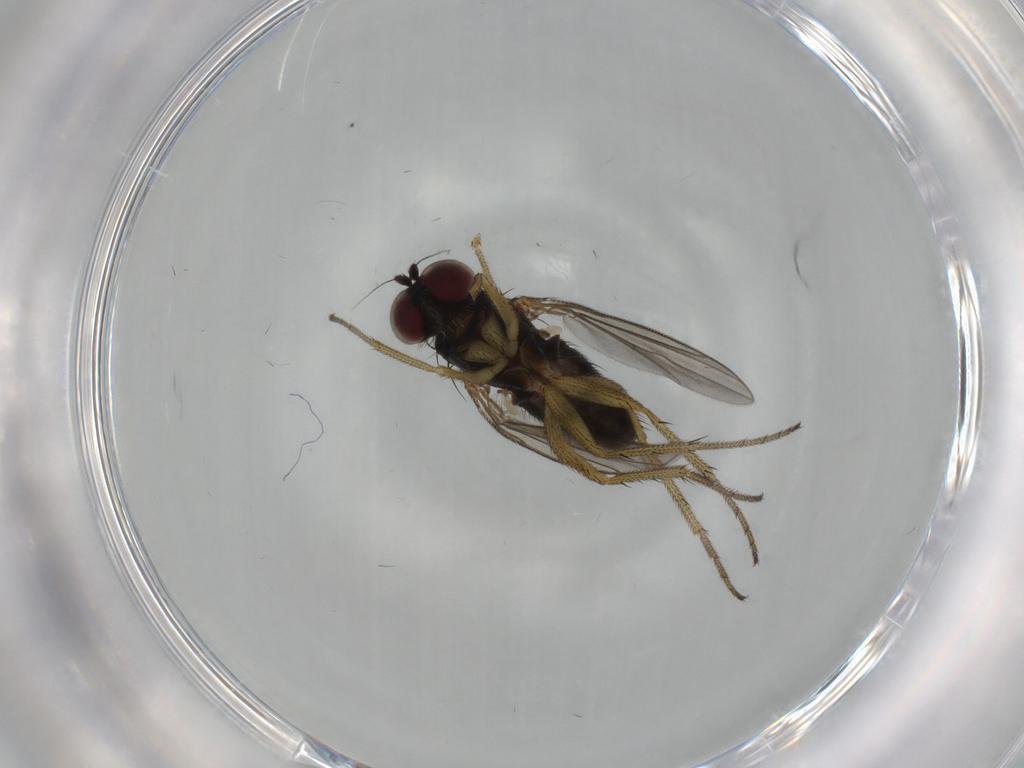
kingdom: Animalia
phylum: Arthropoda
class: Insecta
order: Diptera
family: Dolichopodidae
